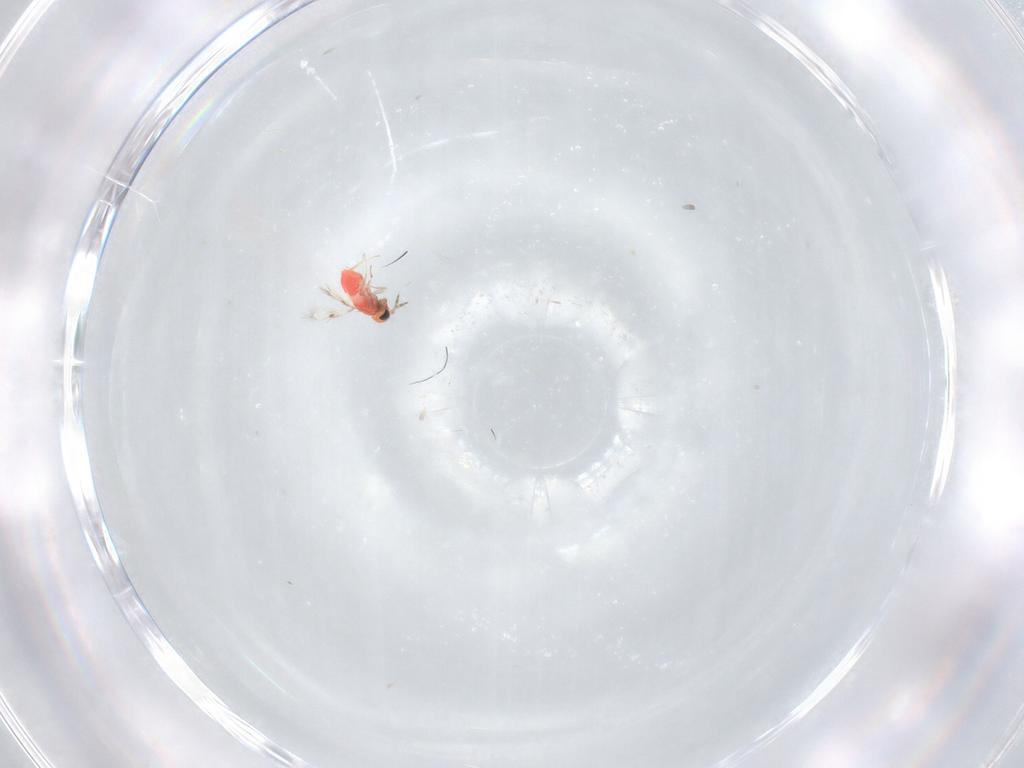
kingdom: Animalia
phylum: Arthropoda
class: Insecta
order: Hymenoptera
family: Trichogrammatidae
